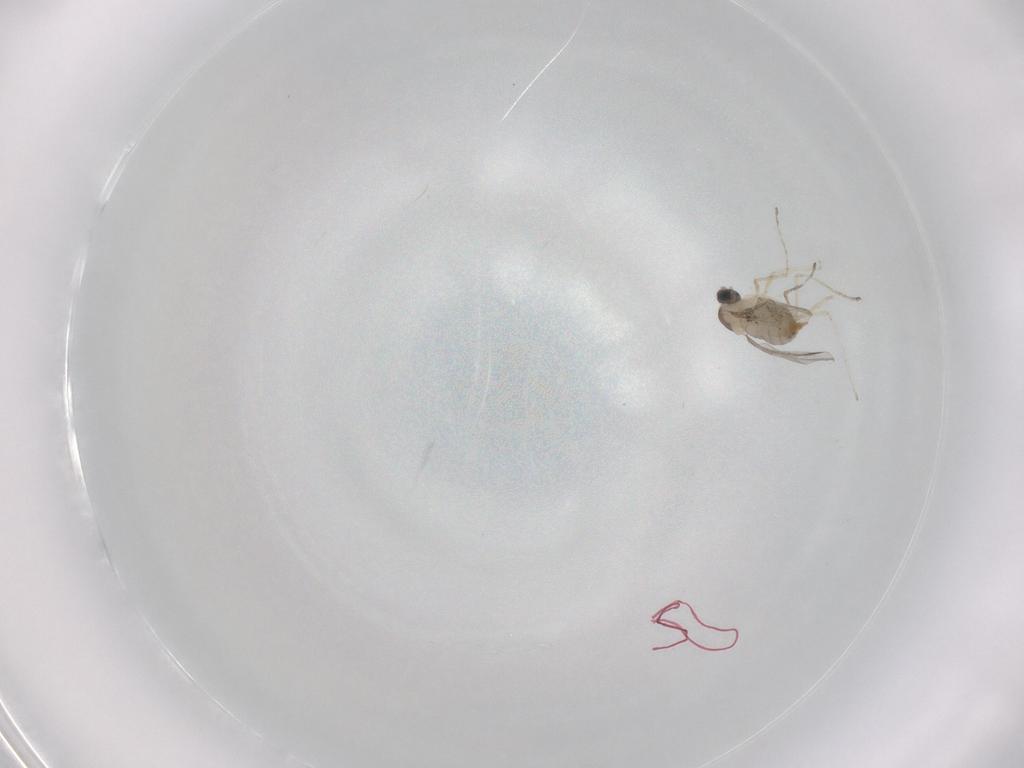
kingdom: Animalia
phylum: Arthropoda
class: Insecta
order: Diptera
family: Cecidomyiidae
